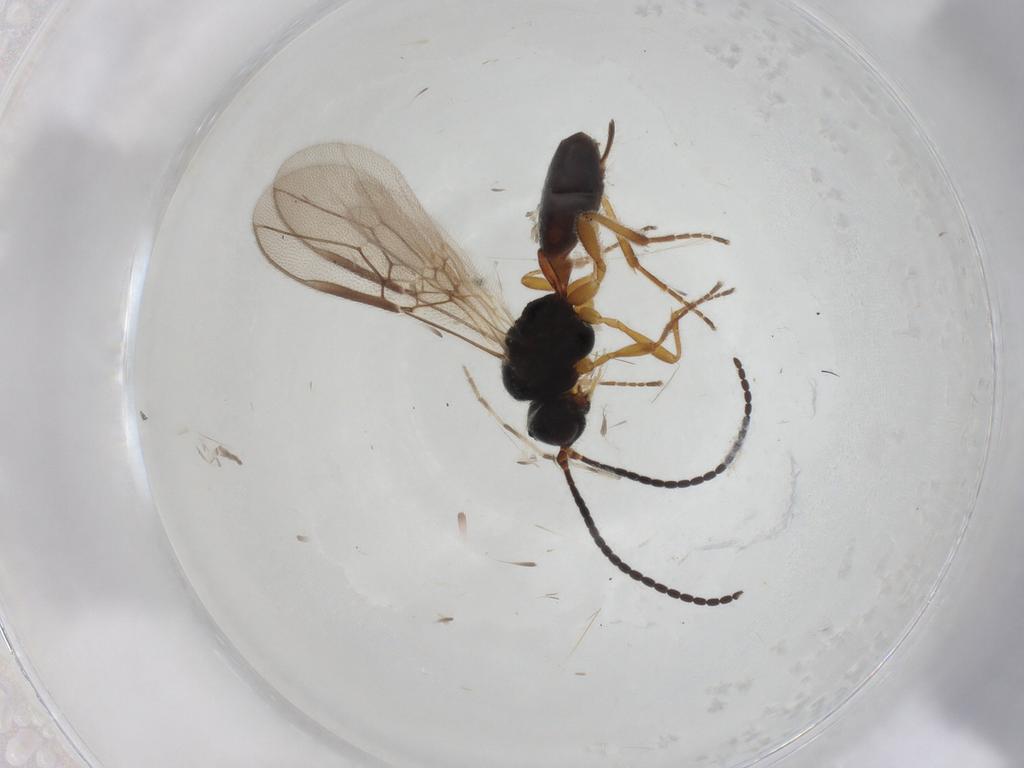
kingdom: Animalia
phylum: Arthropoda
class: Insecta
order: Hymenoptera
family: Braconidae
